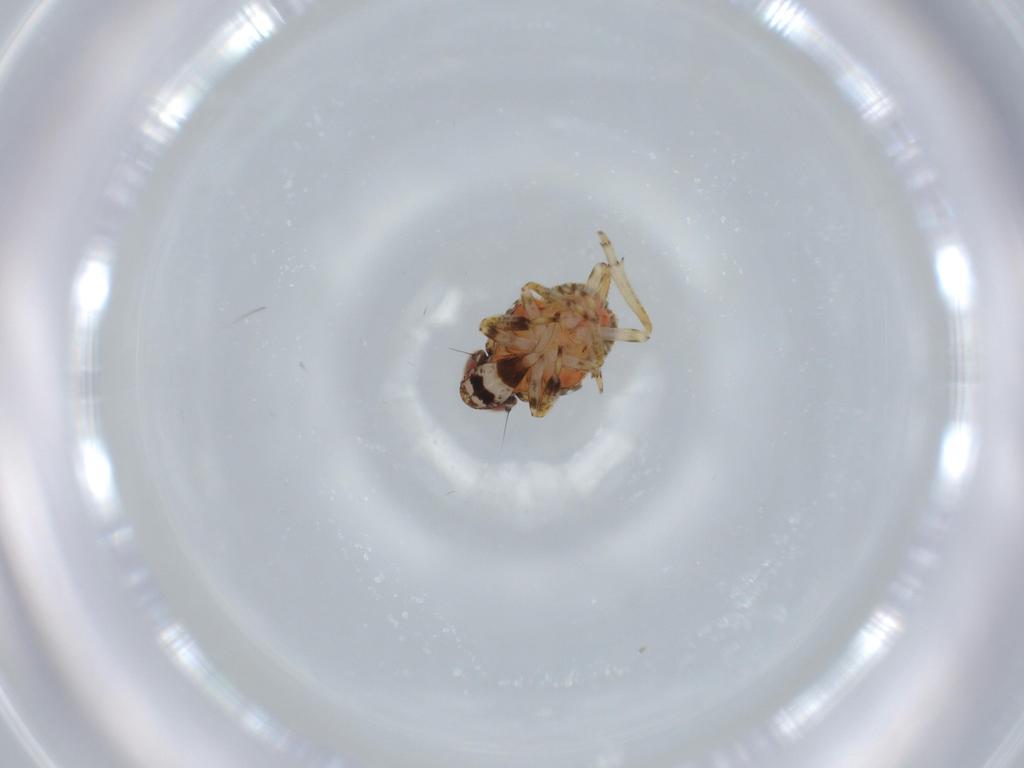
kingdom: Animalia
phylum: Arthropoda
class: Insecta
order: Hemiptera
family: Issidae
